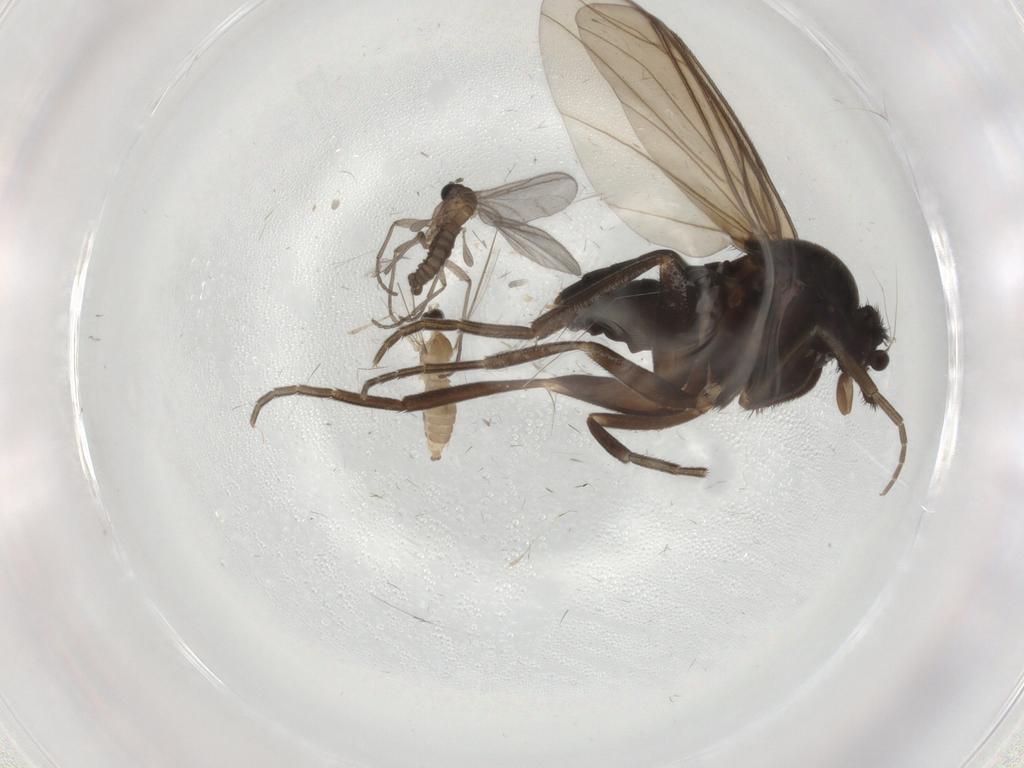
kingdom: Animalia
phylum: Arthropoda
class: Insecta
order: Diptera
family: Phoridae
